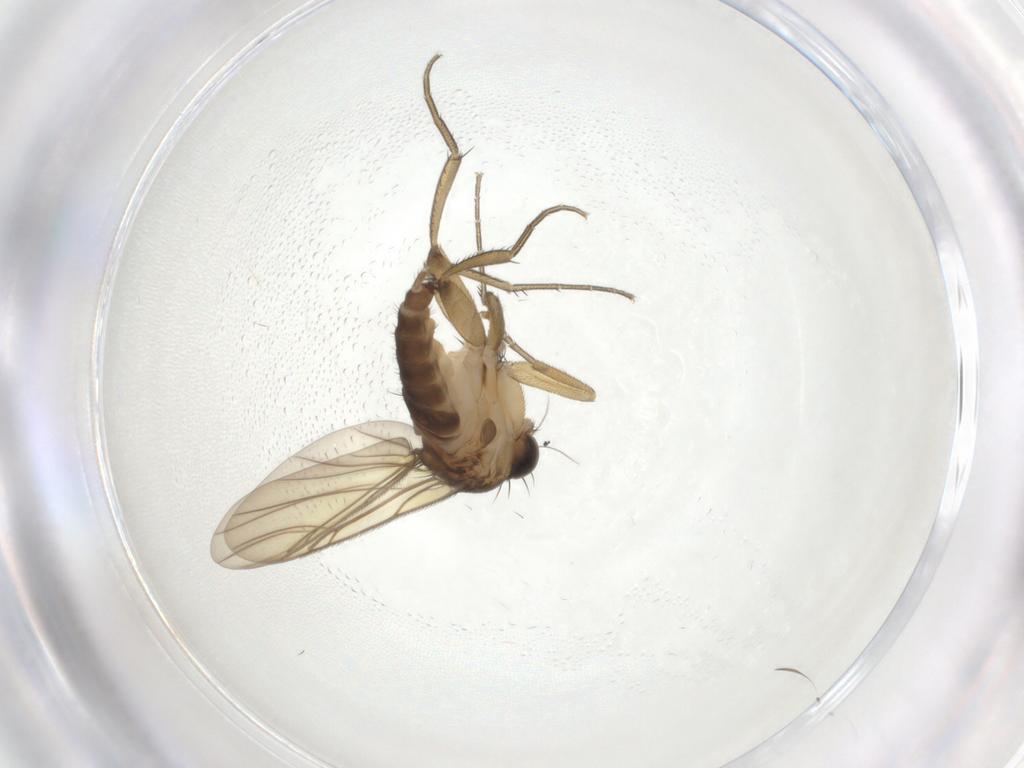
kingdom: Animalia
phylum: Arthropoda
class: Insecta
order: Diptera
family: Phoridae
